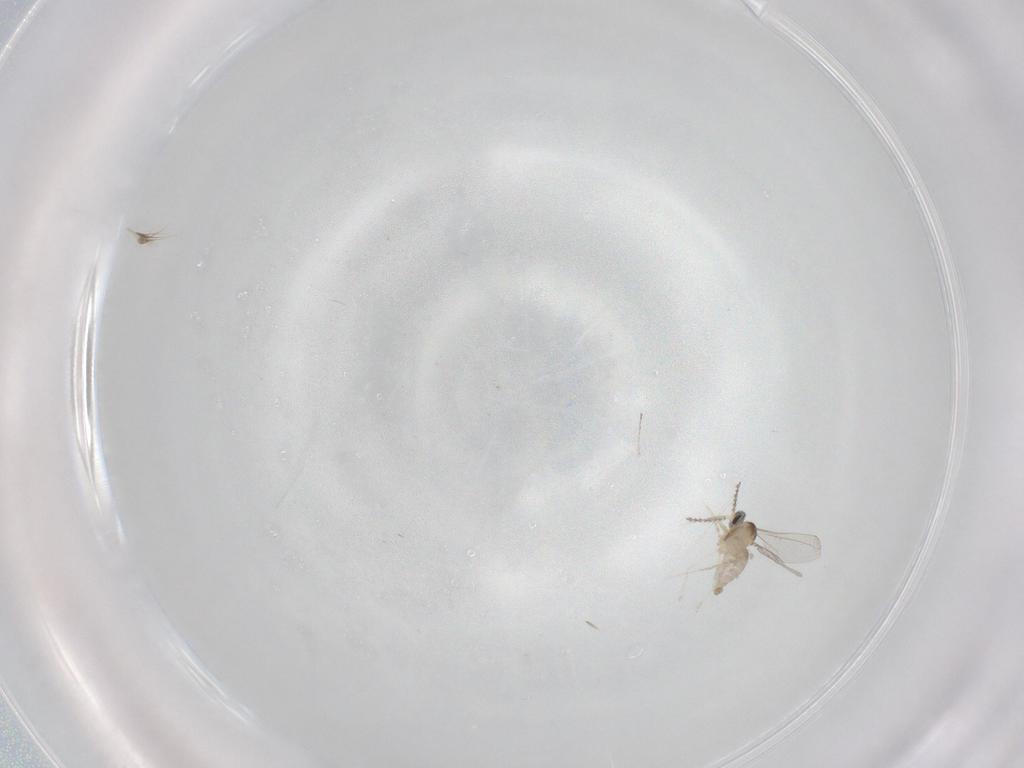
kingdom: Animalia
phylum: Arthropoda
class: Insecta
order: Diptera
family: Cecidomyiidae
